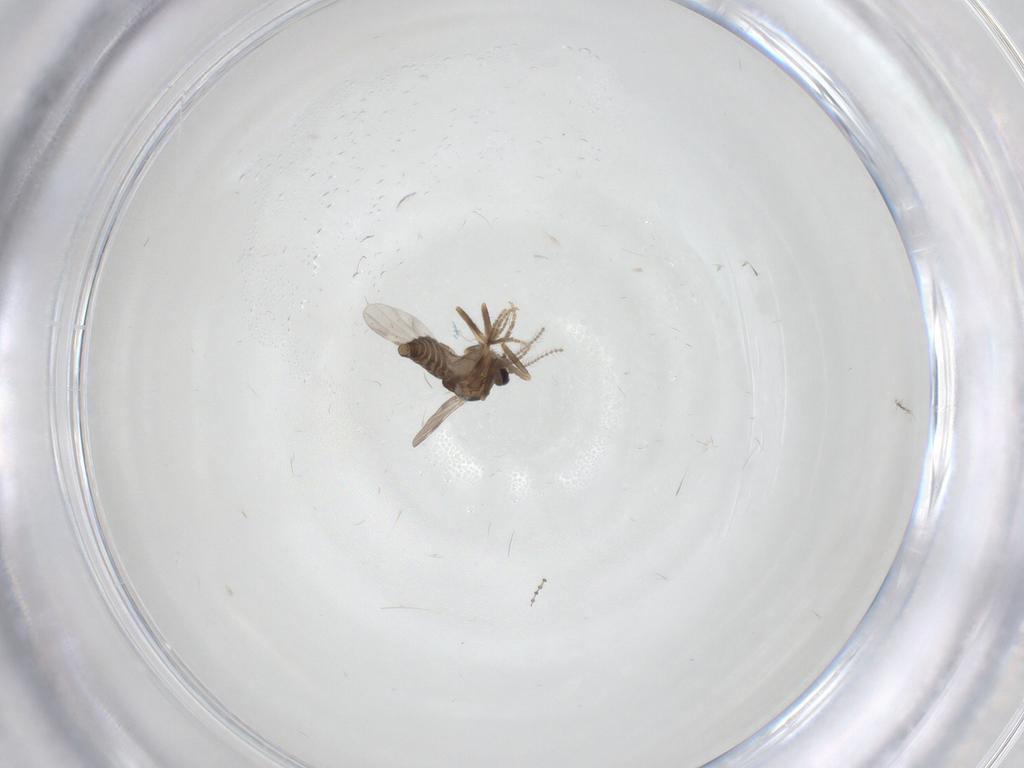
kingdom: Animalia
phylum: Arthropoda
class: Insecta
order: Diptera
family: Ceratopogonidae
